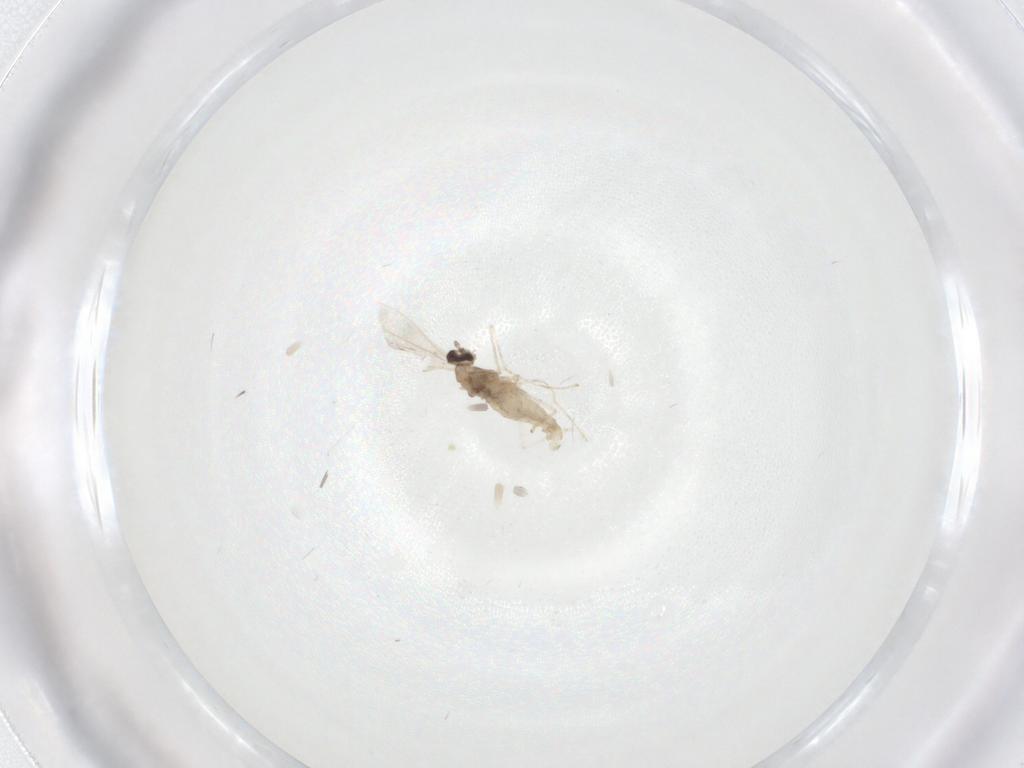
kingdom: Animalia
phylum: Arthropoda
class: Insecta
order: Diptera
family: Cecidomyiidae
